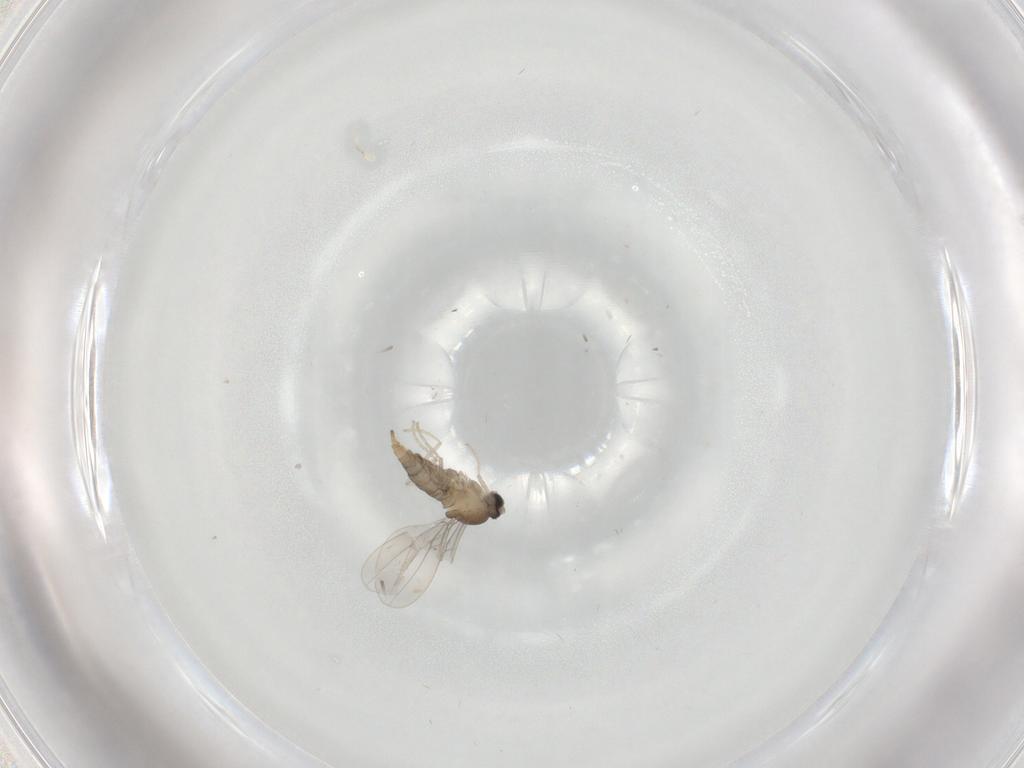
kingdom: Animalia
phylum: Arthropoda
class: Insecta
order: Diptera
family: Cecidomyiidae
